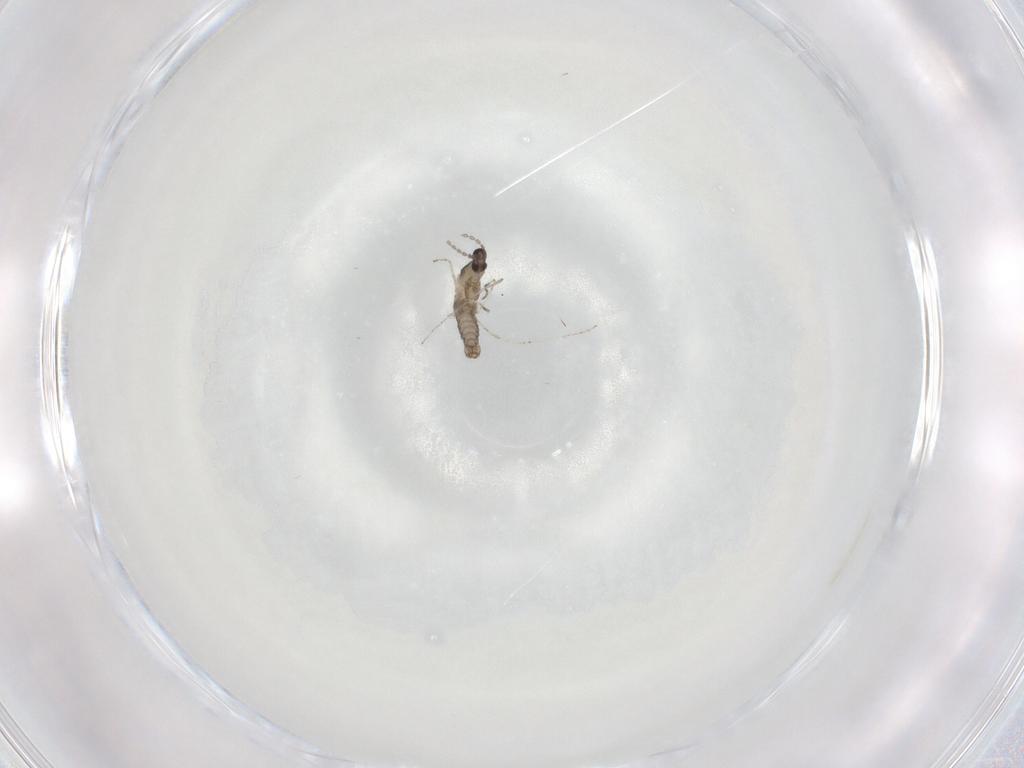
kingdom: Animalia
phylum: Arthropoda
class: Insecta
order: Diptera
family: Cecidomyiidae
